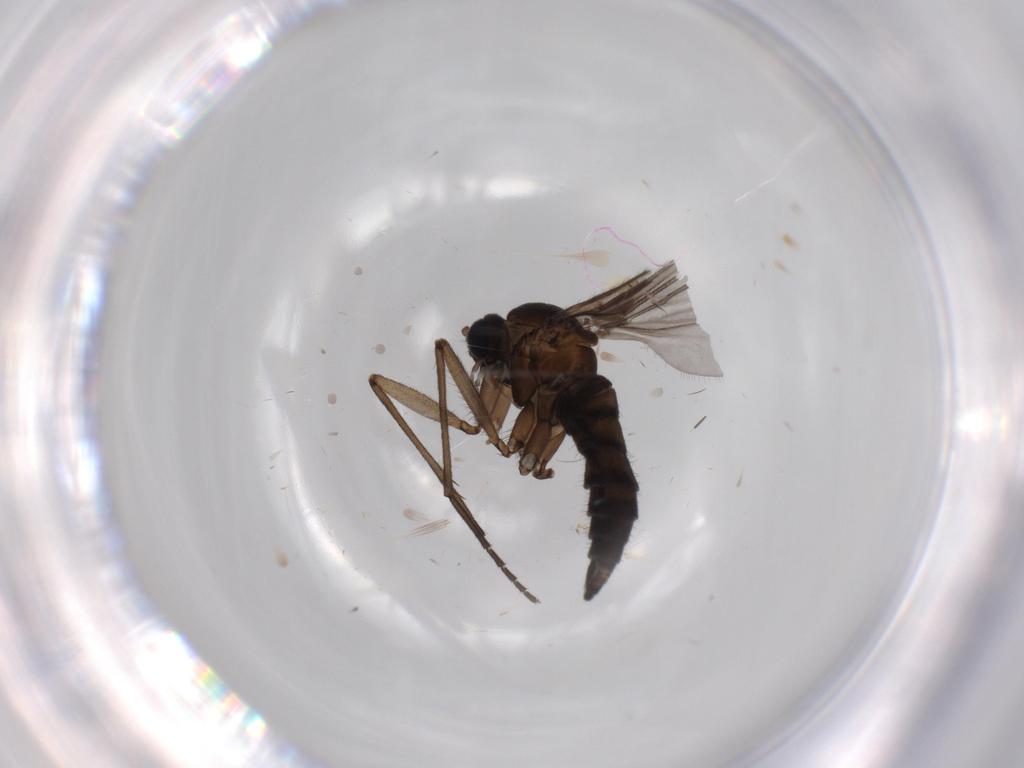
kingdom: Animalia
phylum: Arthropoda
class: Insecta
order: Diptera
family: Sciaridae
